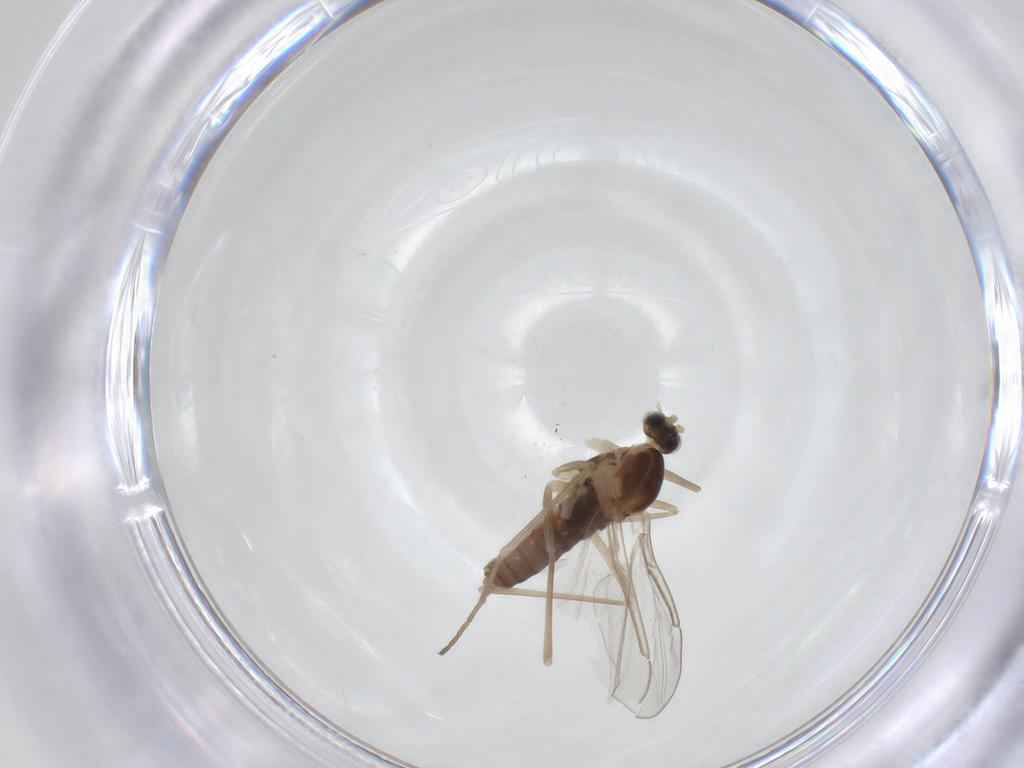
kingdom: Animalia
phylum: Arthropoda
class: Insecta
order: Diptera
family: Cecidomyiidae
